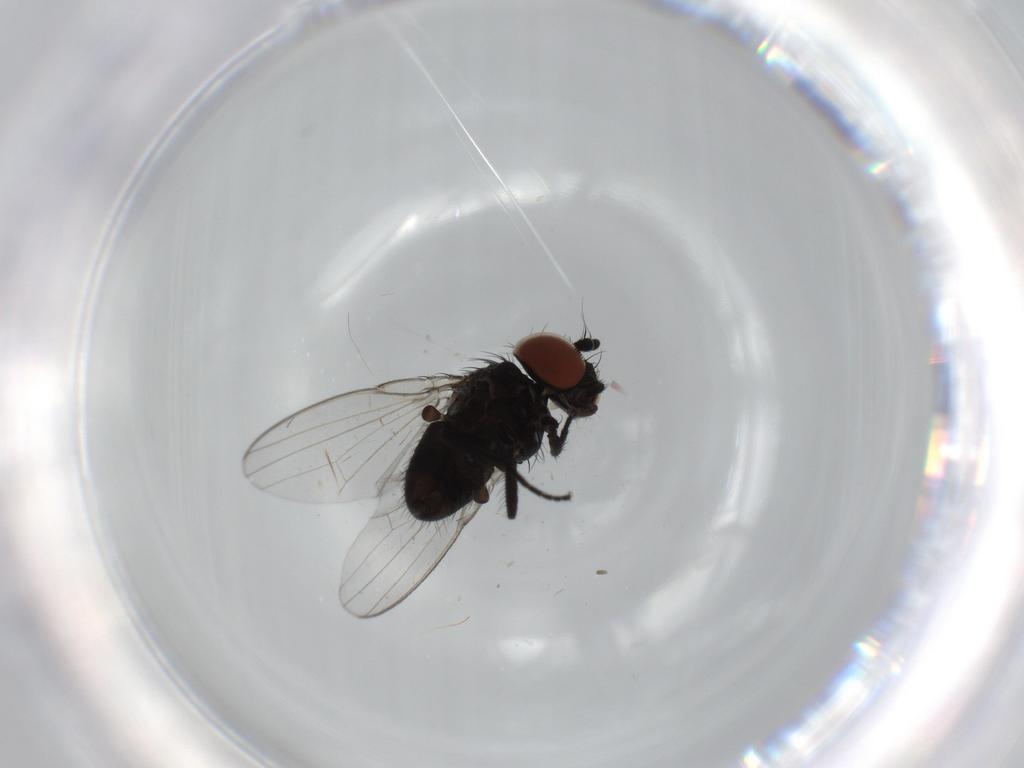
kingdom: Animalia
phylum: Arthropoda
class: Insecta
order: Diptera
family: Milichiidae
